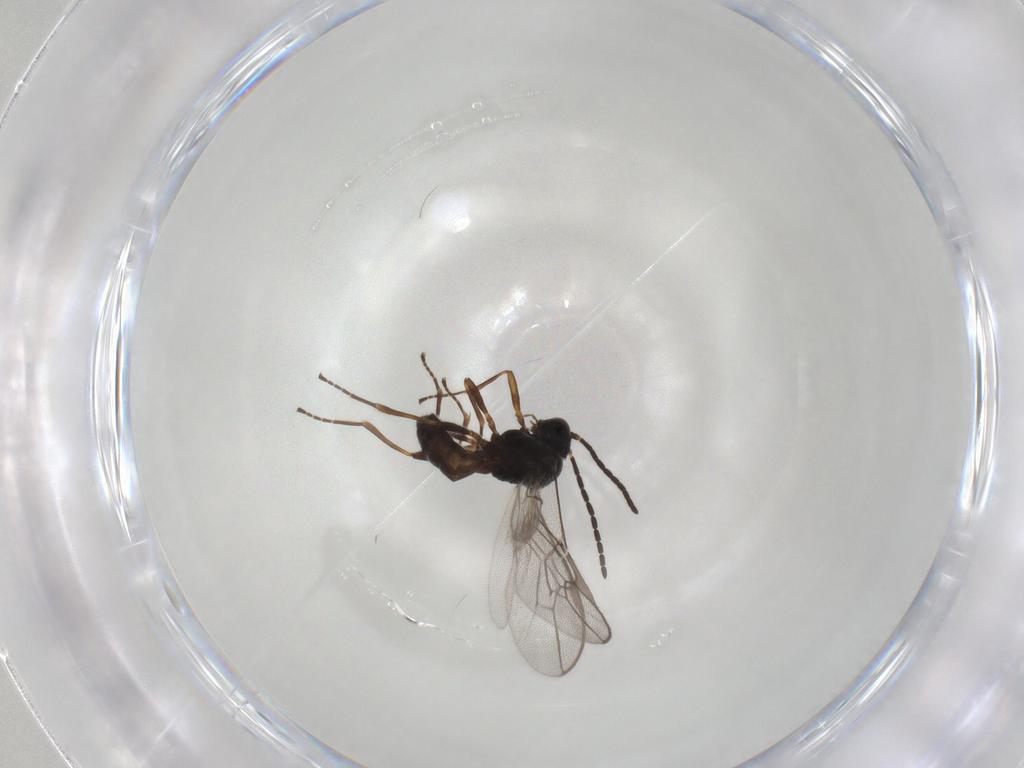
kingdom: Animalia
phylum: Arthropoda
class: Insecta
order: Hymenoptera
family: Braconidae
